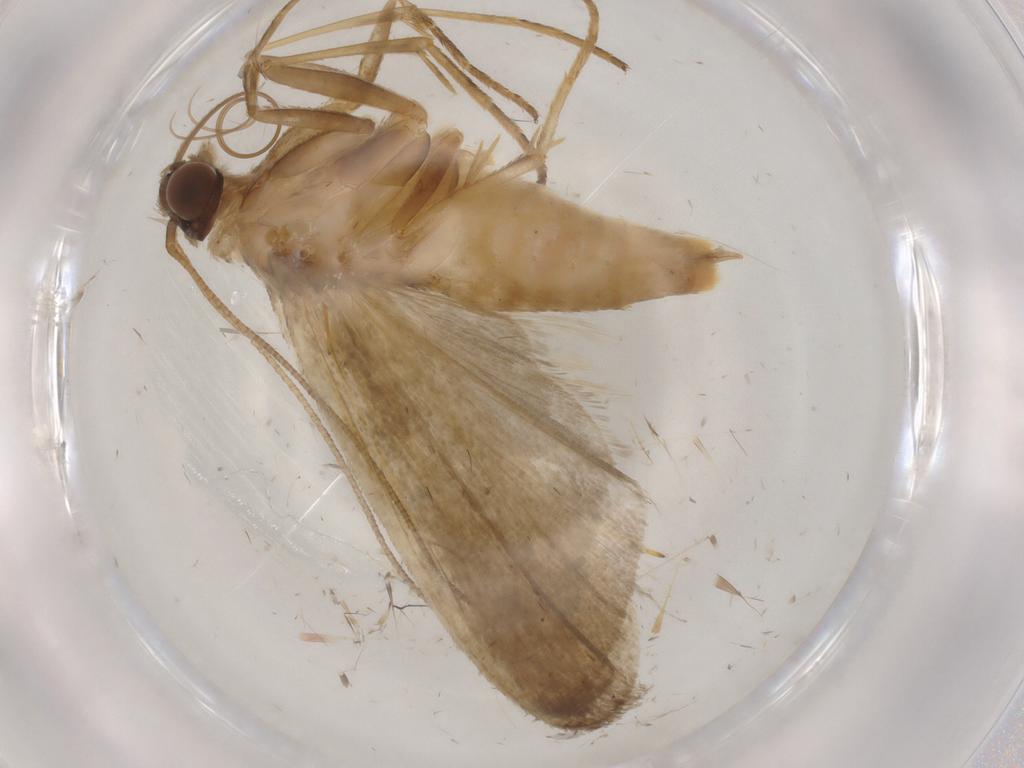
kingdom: Animalia
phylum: Arthropoda
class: Insecta
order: Lepidoptera
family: Noctuidae
